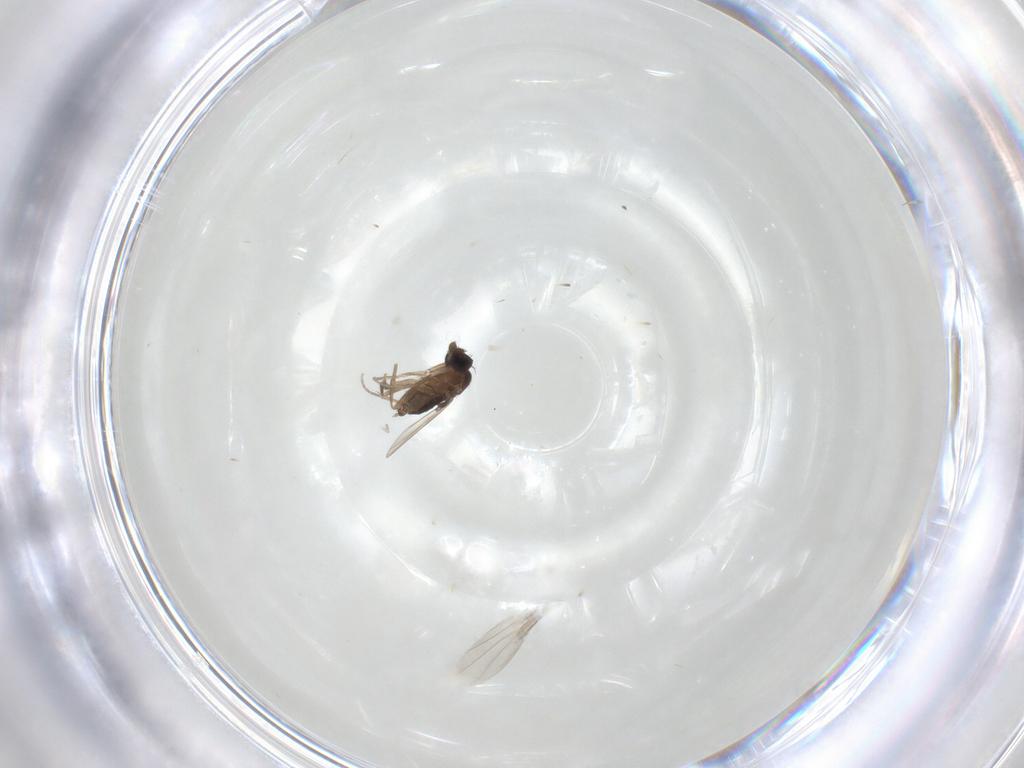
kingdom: Animalia
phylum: Arthropoda
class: Insecta
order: Diptera
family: Phoridae
